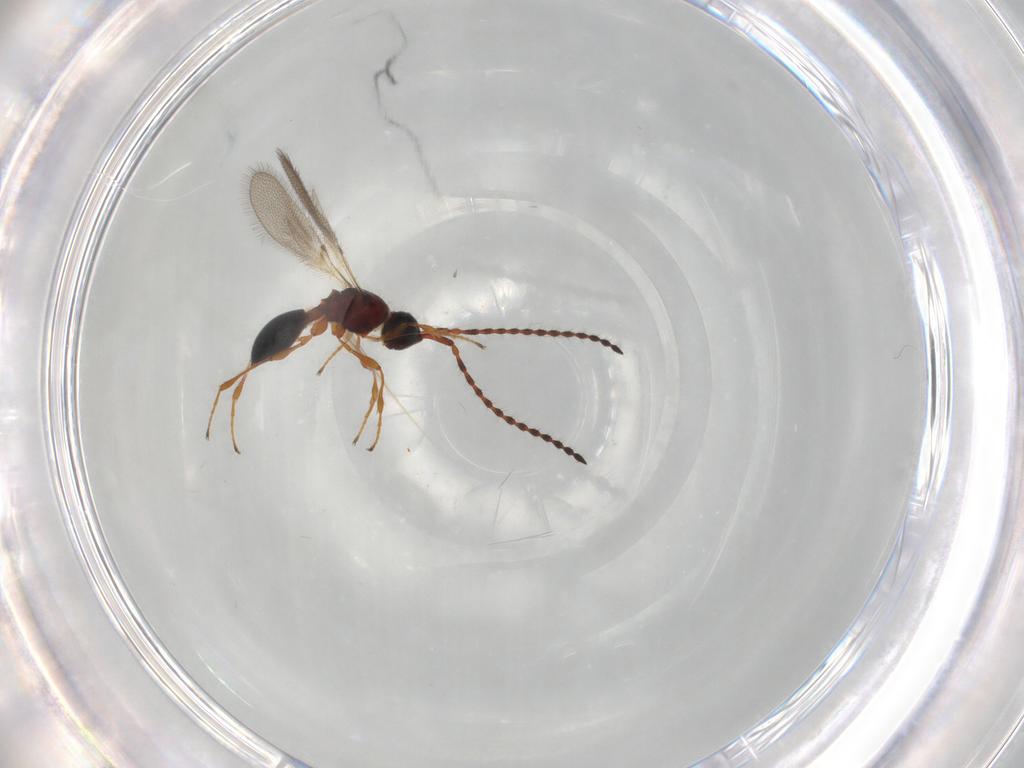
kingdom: Animalia
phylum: Arthropoda
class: Insecta
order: Hymenoptera
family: Diapriidae
